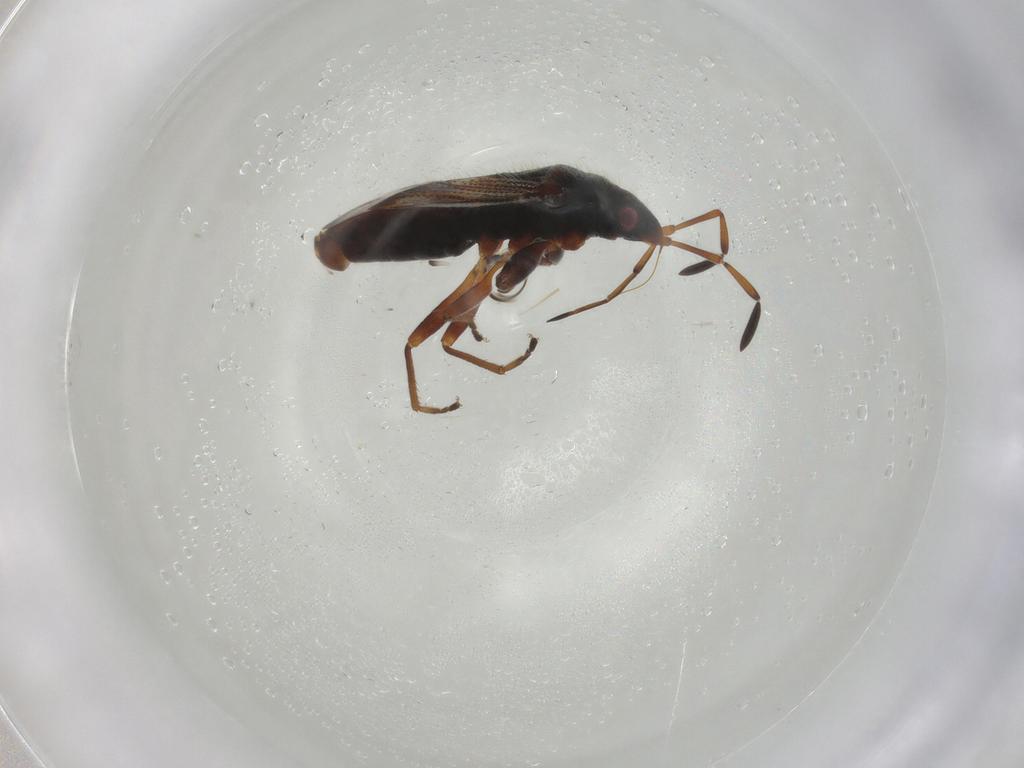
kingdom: Animalia
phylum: Arthropoda
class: Insecta
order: Hemiptera
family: Rhyparochromidae
